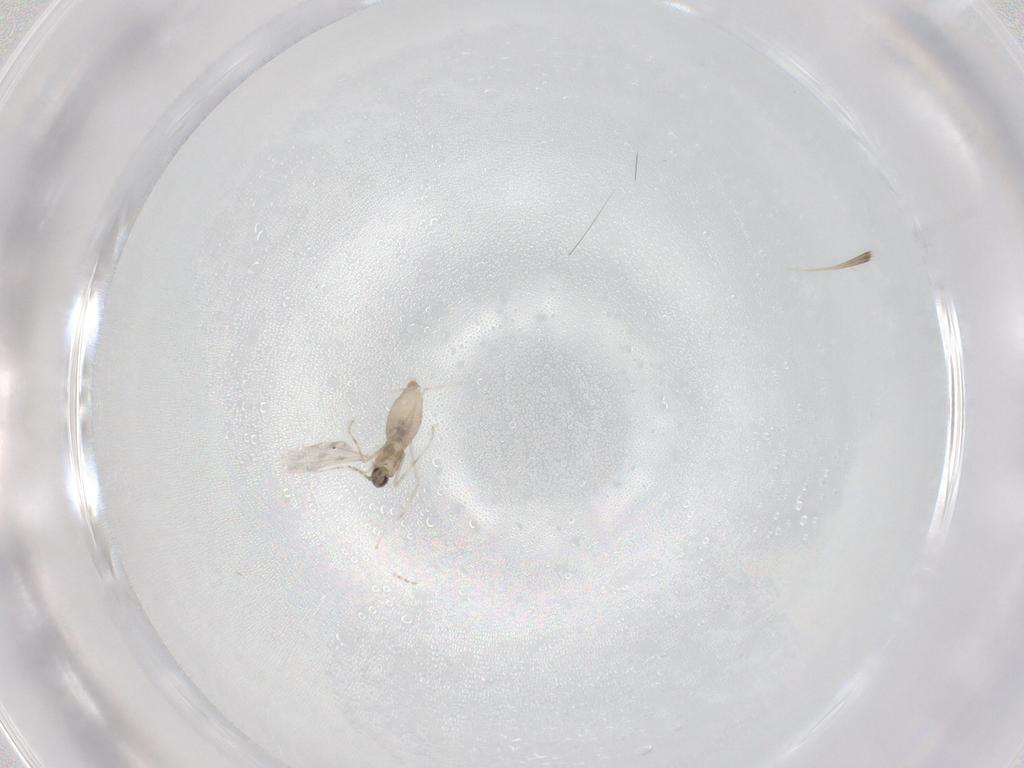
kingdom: Animalia
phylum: Arthropoda
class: Insecta
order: Diptera
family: Cecidomyiidae
